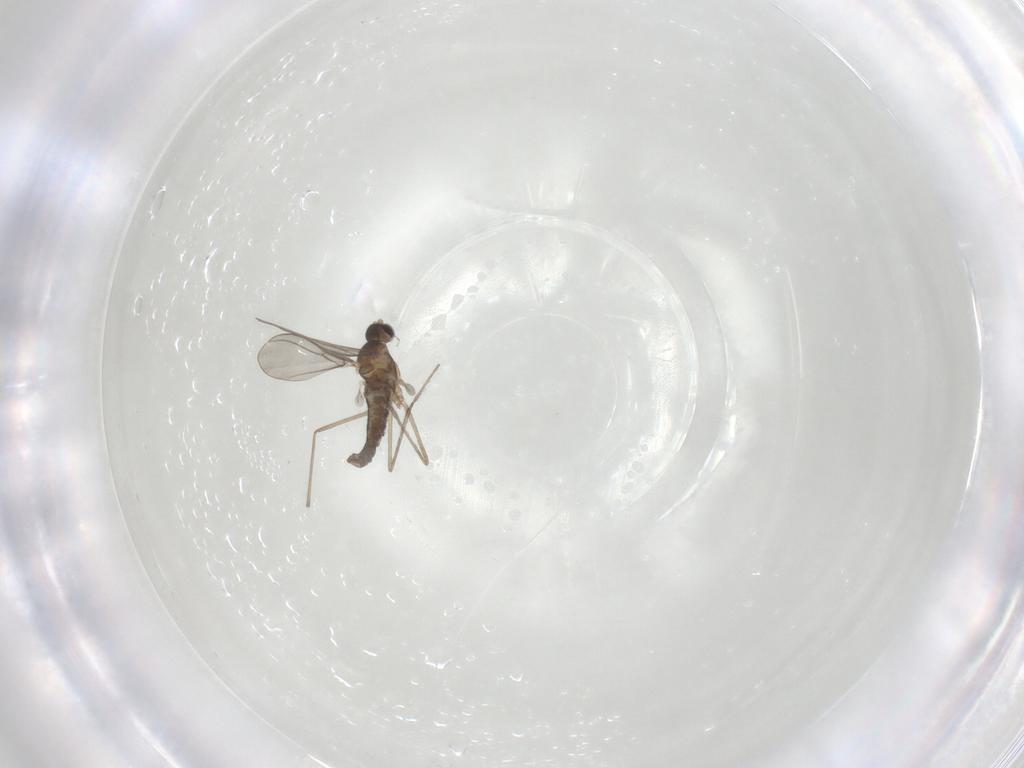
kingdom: Animalia
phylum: Arthropoda
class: Insecta
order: Diptera
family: Cecidomyiidae
